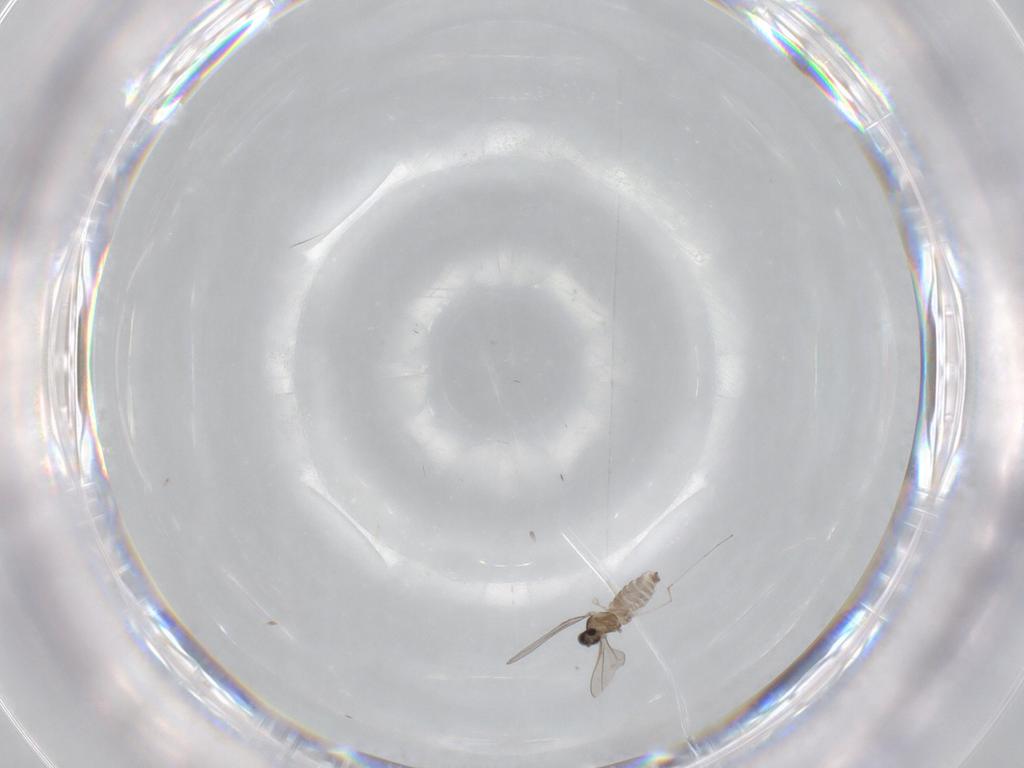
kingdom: Animalia
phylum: Arthropoda
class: Insecta
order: Diptera
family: Cecidomyiidae
